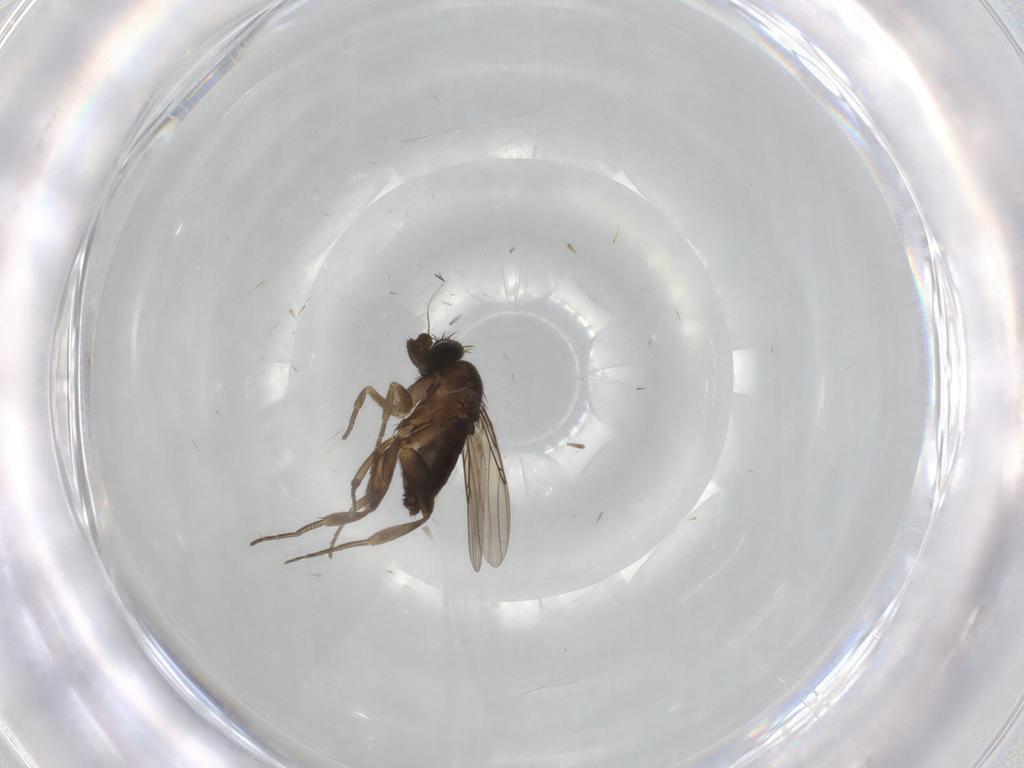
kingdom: Animalia
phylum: Arthropoda
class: Insecta
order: Diptera
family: Phoridae
